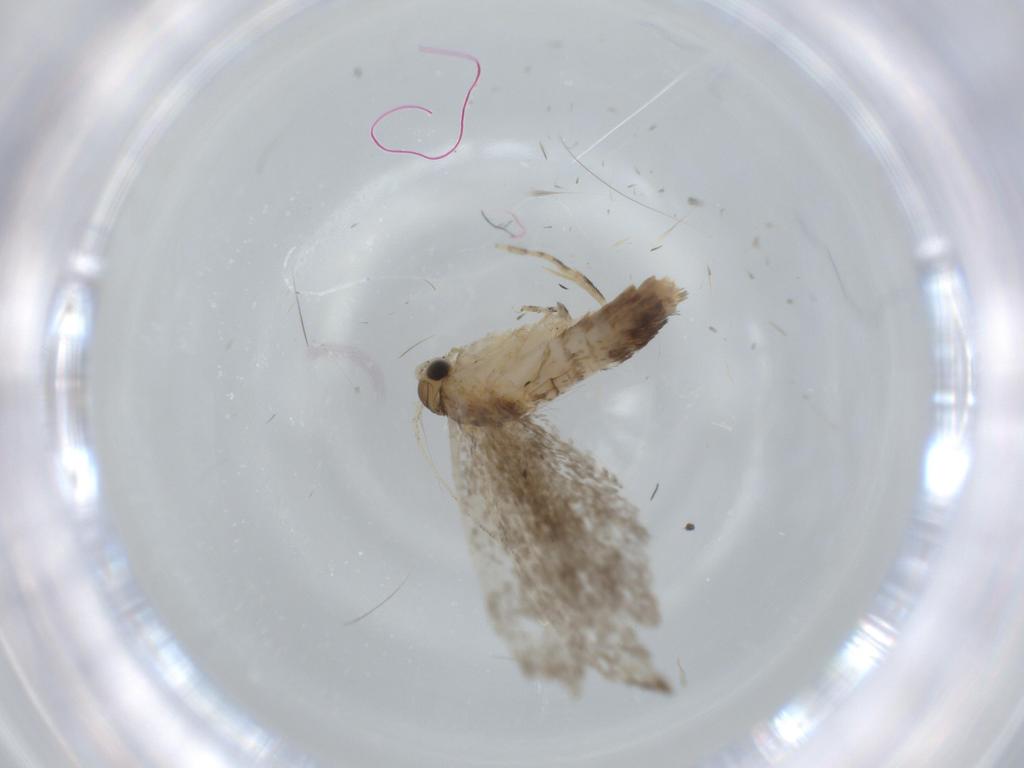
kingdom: Animalia
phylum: Arthropoda
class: Insecta
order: Lepidoptera
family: Tineidae
